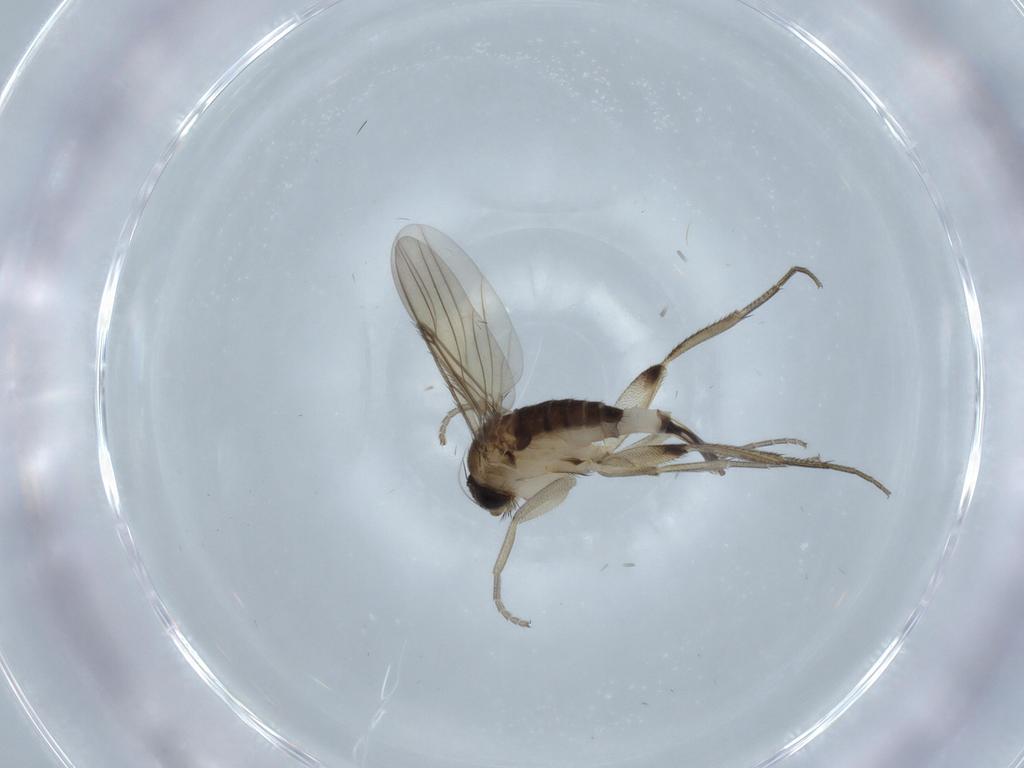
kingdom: Animalia
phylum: Arthropoda
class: Insecta
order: Diptera
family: Phoridae
